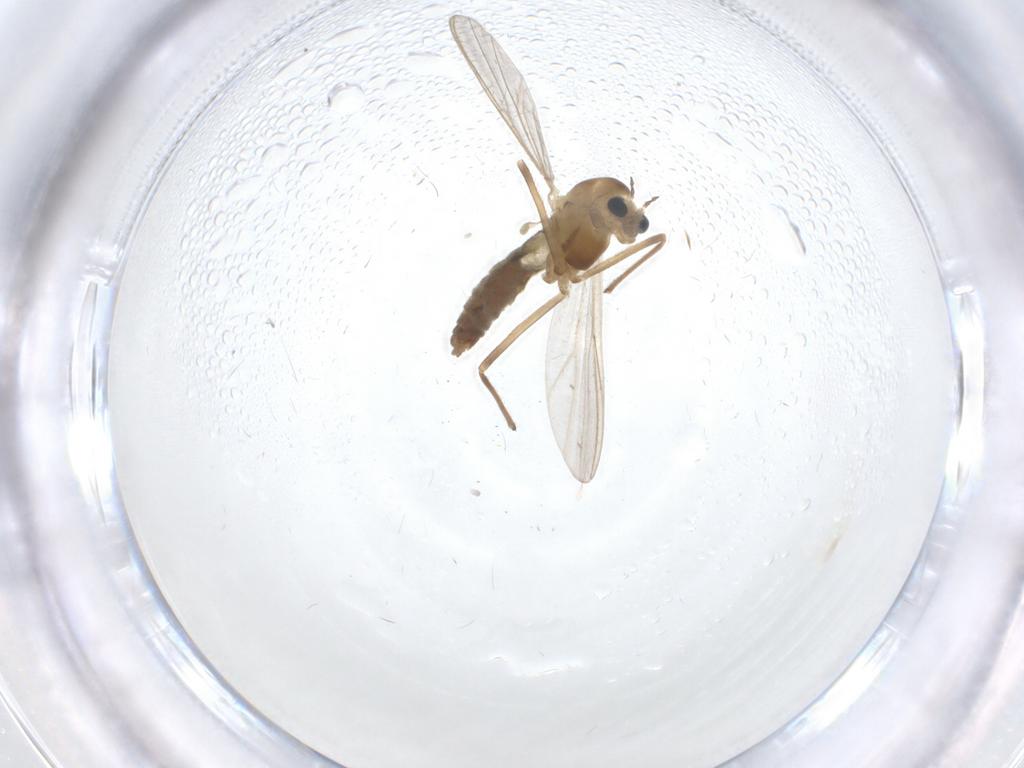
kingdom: Animalia
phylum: Arthropoda
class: Insecta
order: Diptera
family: Chironomidae
